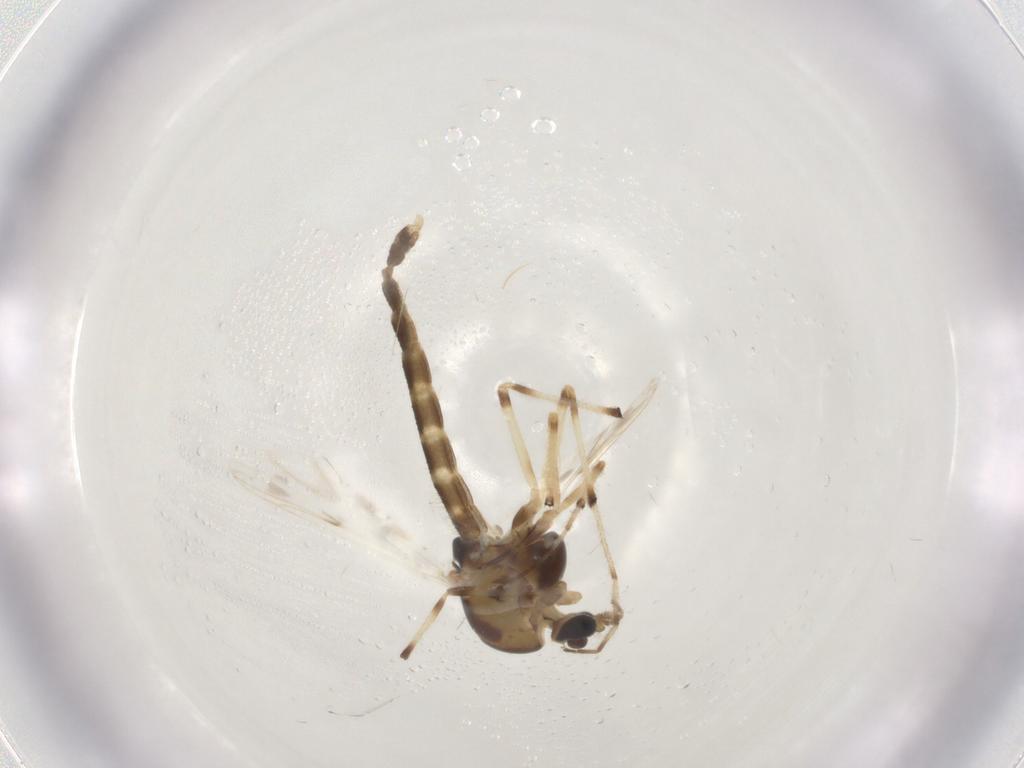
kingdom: Animalia
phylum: Arthropoda
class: Insecta
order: Diptera
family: Chironomidae
